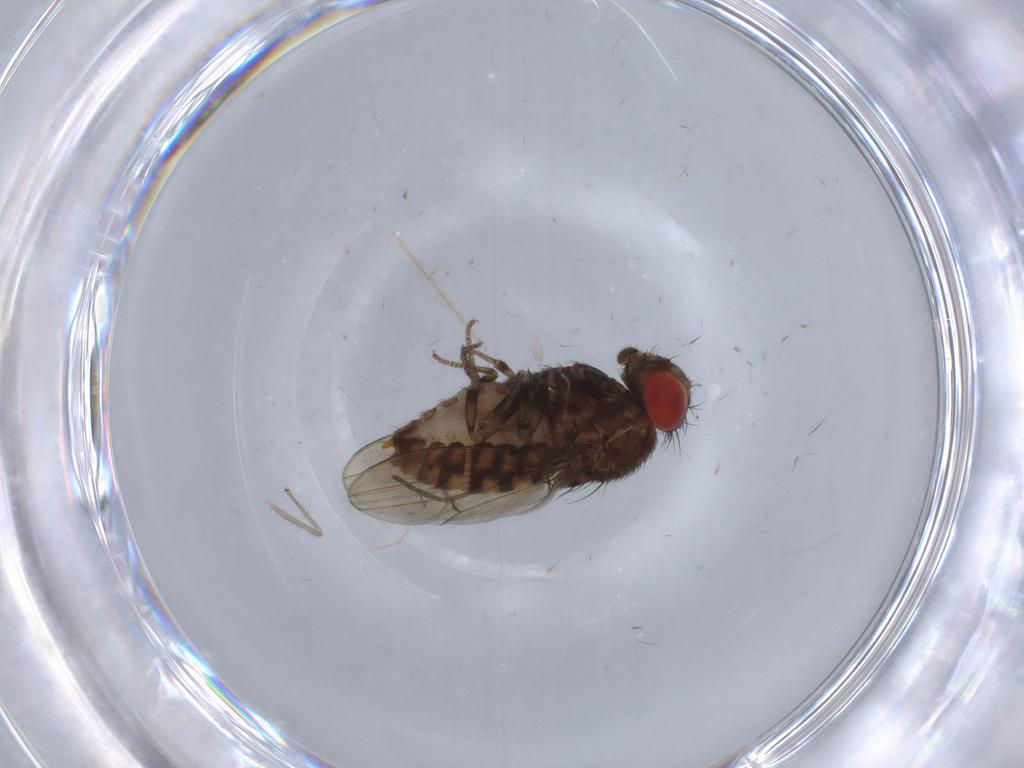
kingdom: Animalia
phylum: Arthropoda
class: Insecta
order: Diptera
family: Drosophilidae
